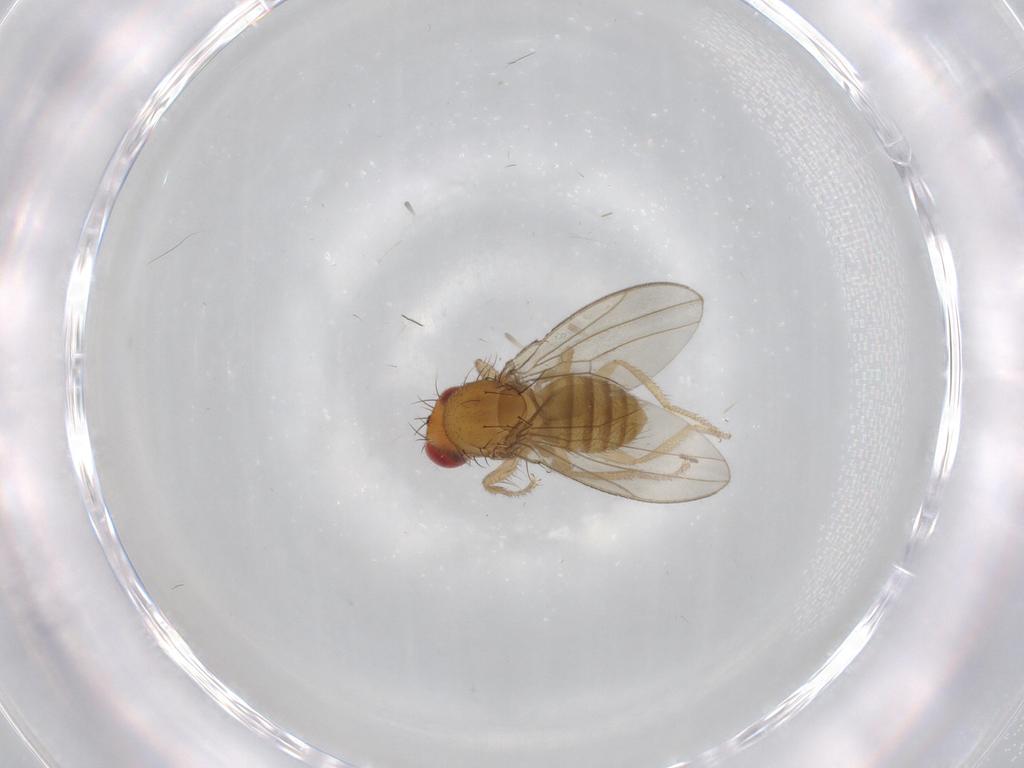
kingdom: Animalia
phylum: Arthropoda
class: Insecta
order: Diptera
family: Drosophilidae
